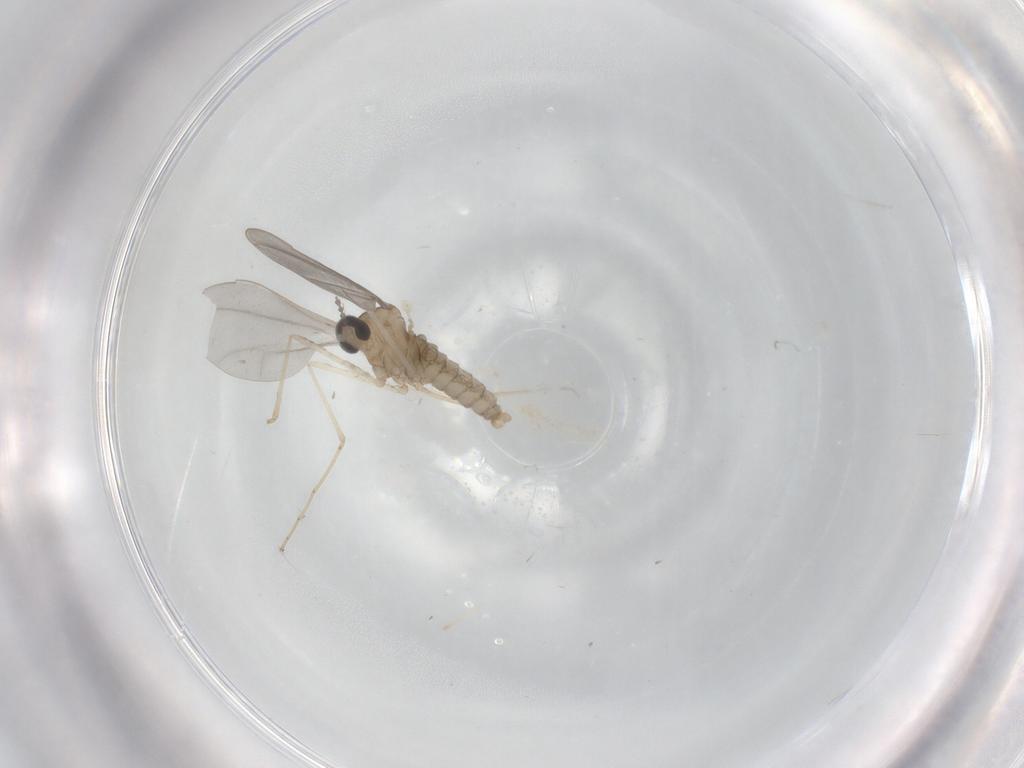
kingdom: Animalia
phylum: Arthropoda
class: Insecta
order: Diptera
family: Cecidomyiidae
